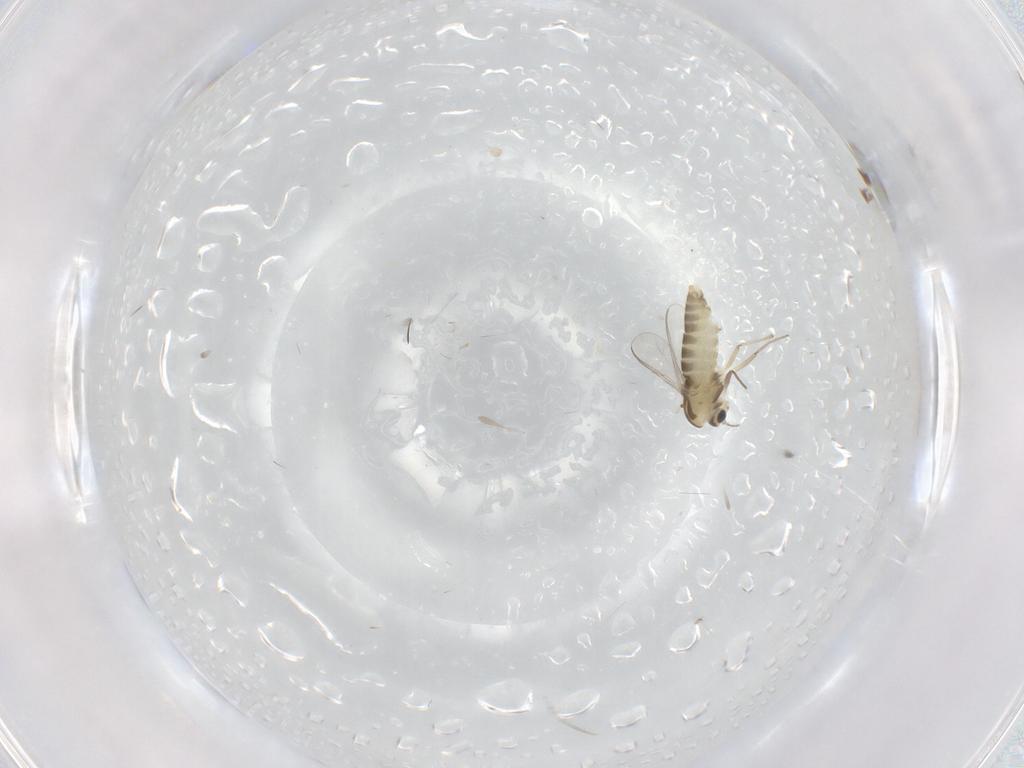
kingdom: Animalia
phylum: Arthropoda
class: Insecta
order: Diptera
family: Chironomidae
